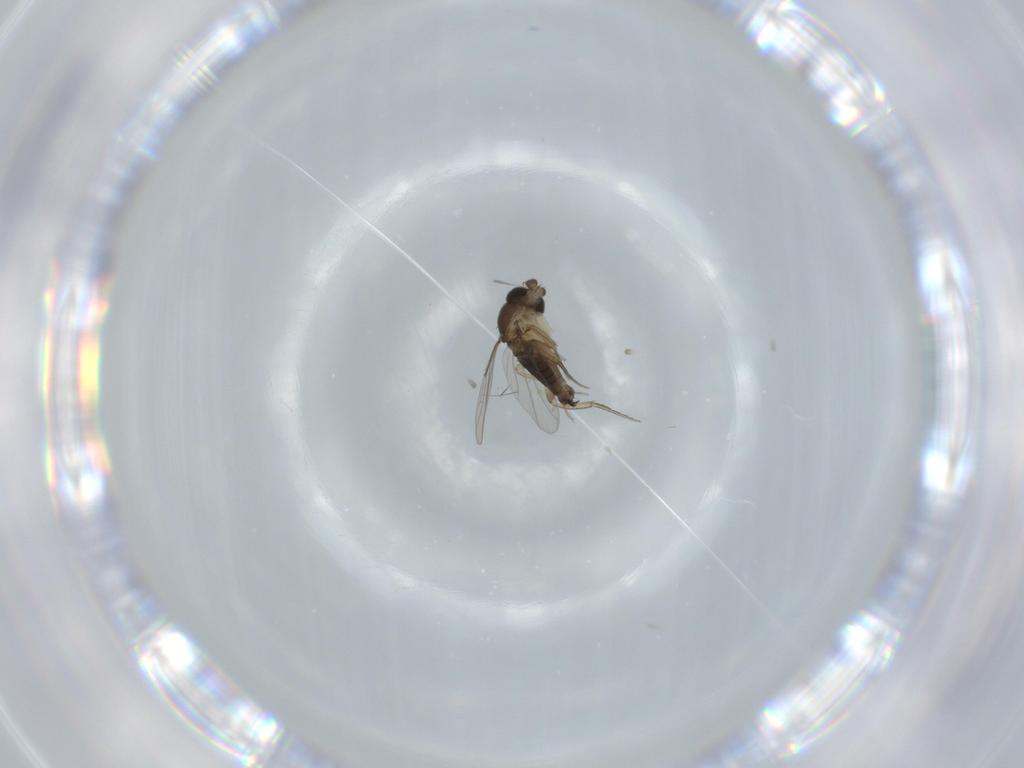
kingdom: Animalia
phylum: Arthropoda
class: Insecta
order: Diptera
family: Phoridae
